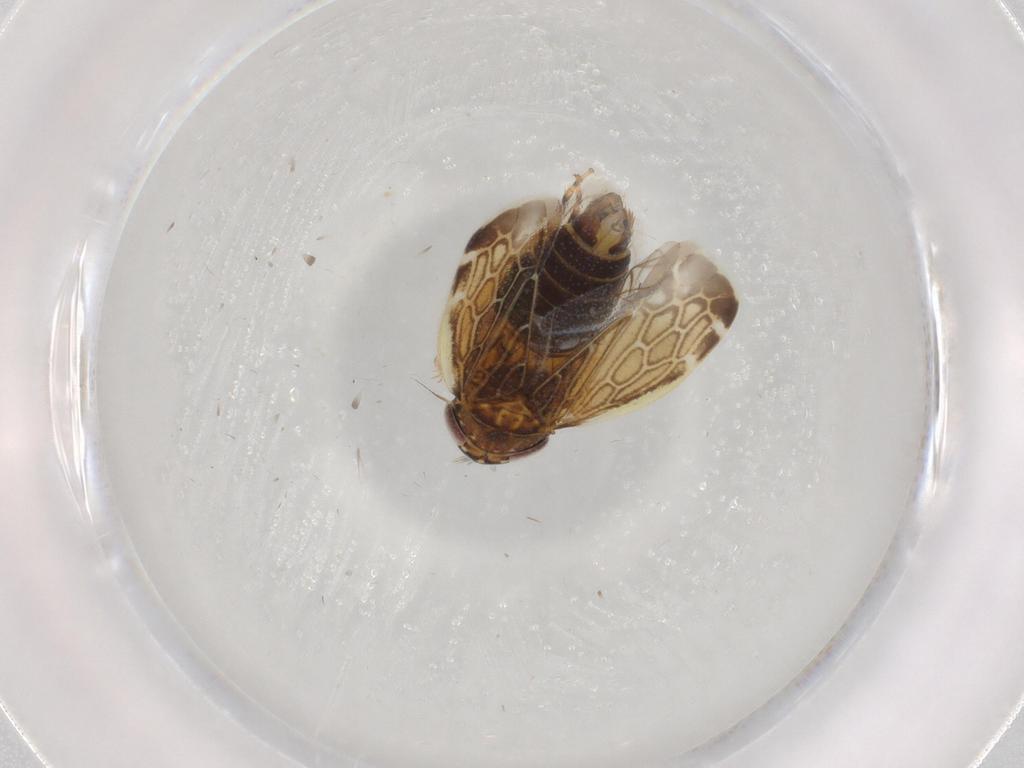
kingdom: Animalia
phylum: Arthropoda
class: Insecta
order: Hemiptera
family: Cicadellidae
